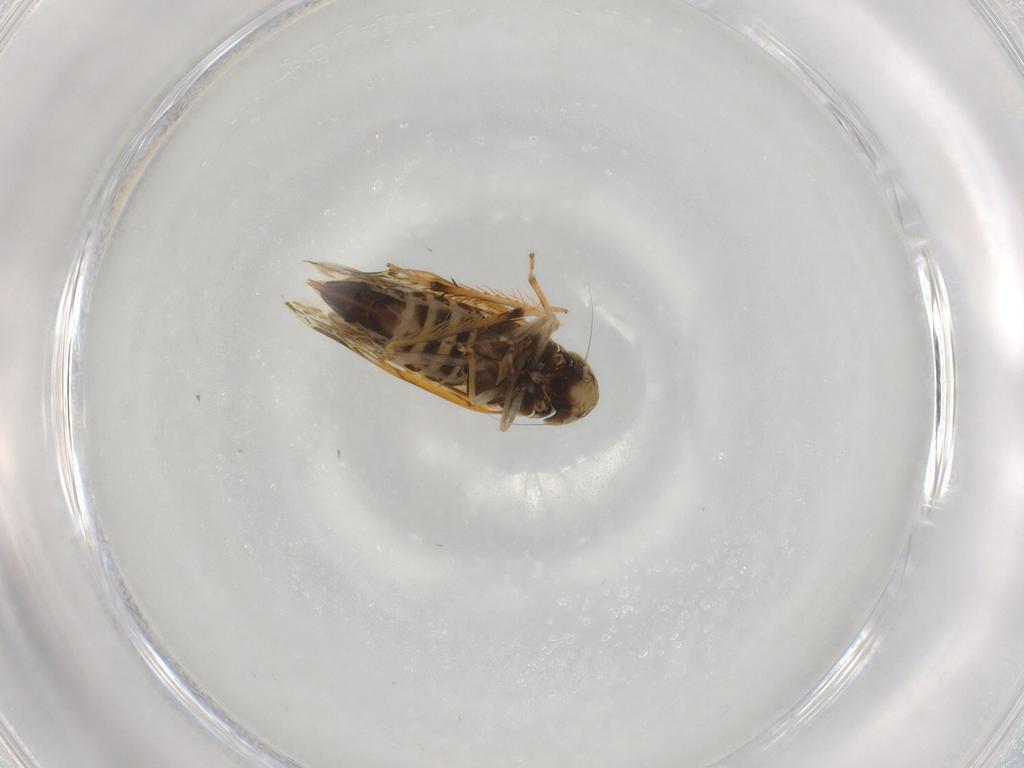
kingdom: Animalia
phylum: Arthropoda
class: Insecta
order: Hemiptera
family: Cicadellidae
